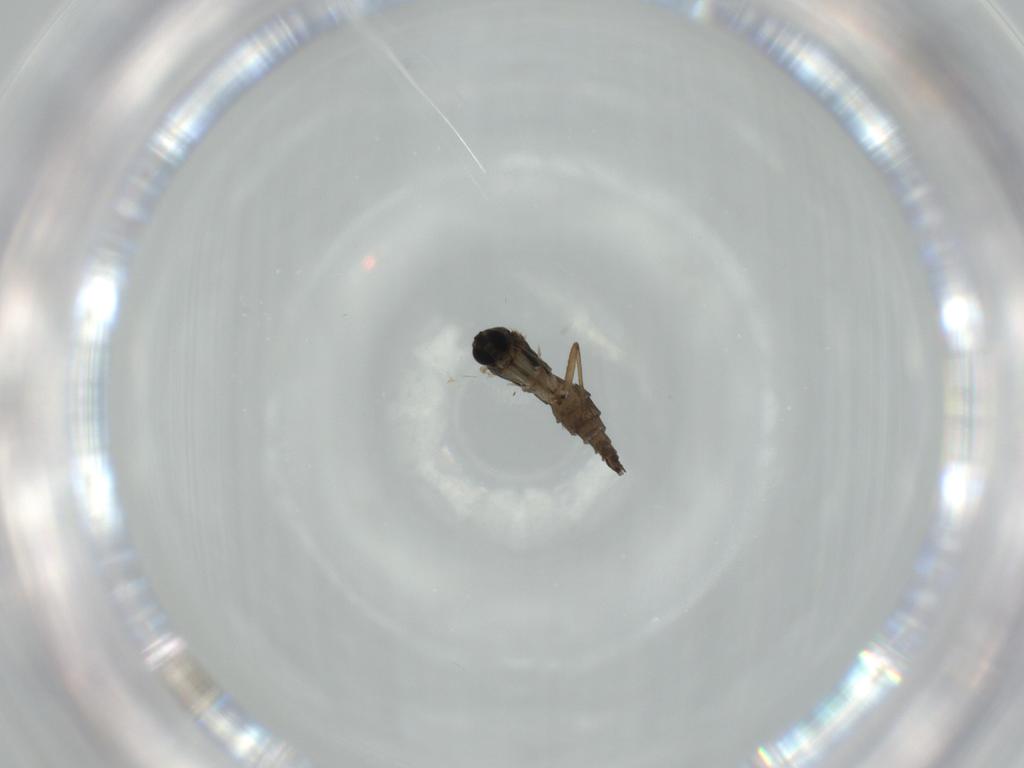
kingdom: Animalia
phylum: Arthropoda
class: Insecta
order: Diptera
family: Sciaridae
